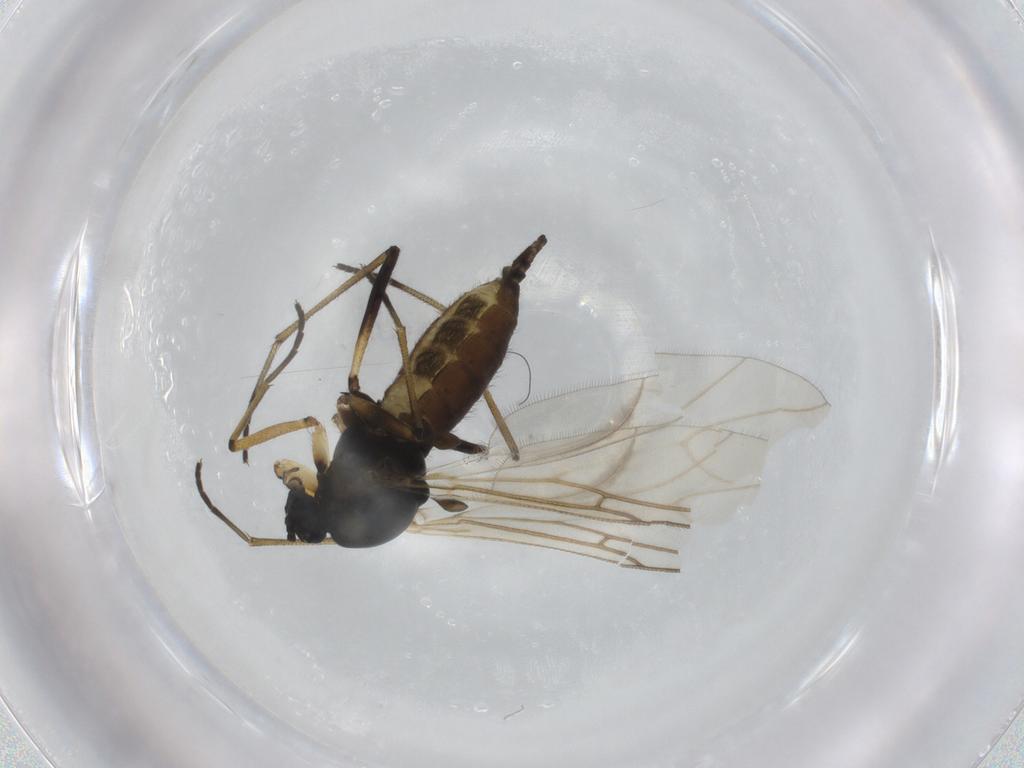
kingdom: Animalia
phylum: Arthropoda
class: Insecta
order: Diptera
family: Sciaridae
